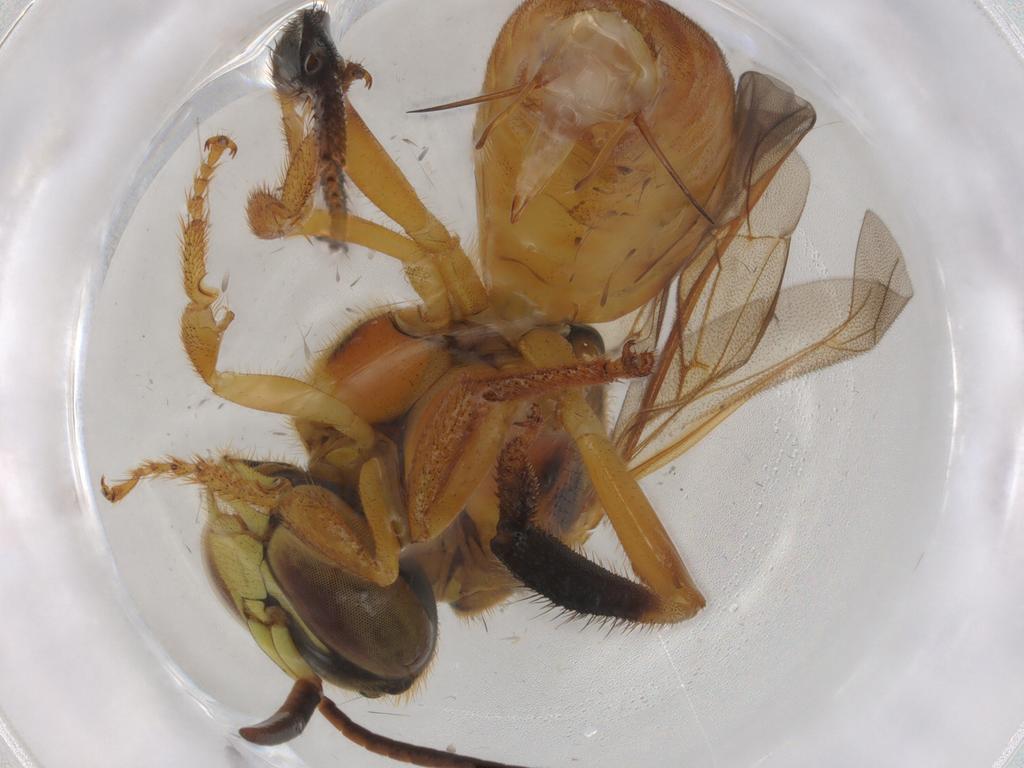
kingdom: Animalia
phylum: Arthropoda
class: Insecta
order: Hymenoptera
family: Apidae
